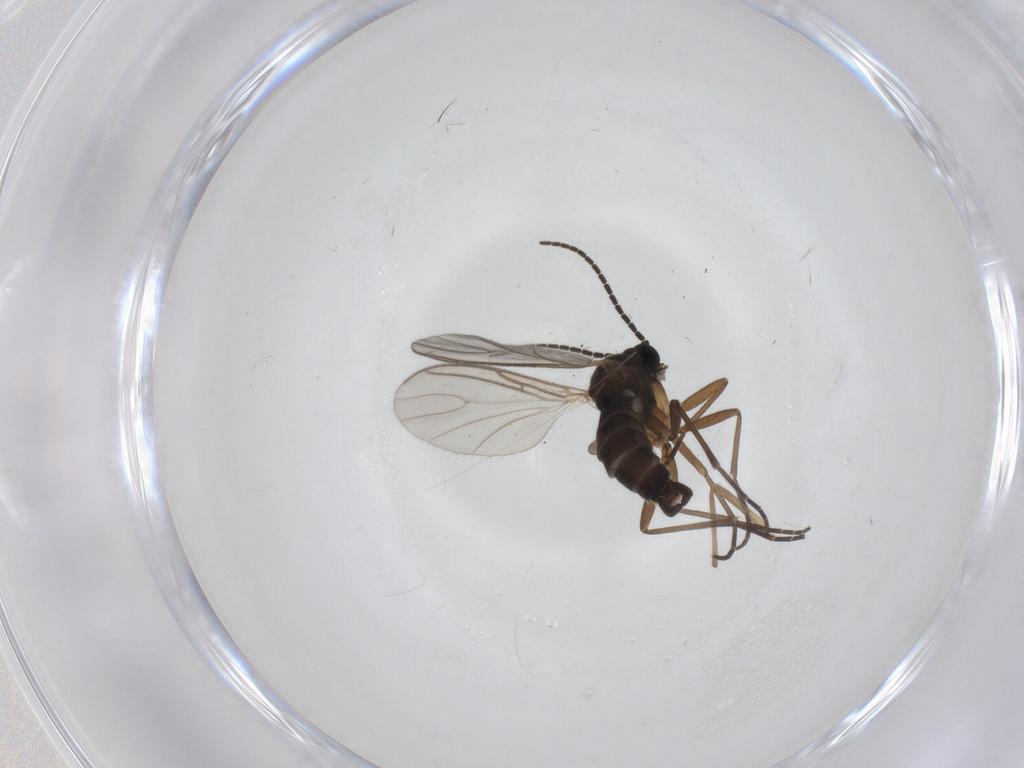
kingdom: Animalia
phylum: Arthropoda
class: Insecta
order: Diptera
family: Sciaridae
